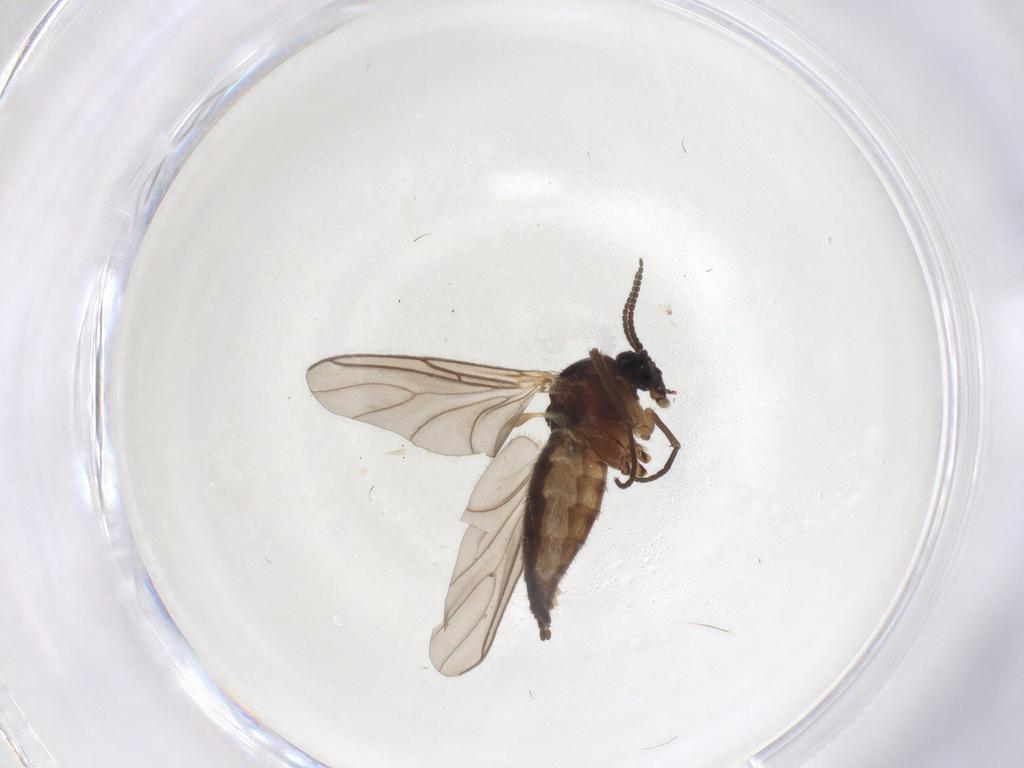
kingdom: Animalia
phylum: Arthropoda
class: Insecta
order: Diptera
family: Sciaridae
